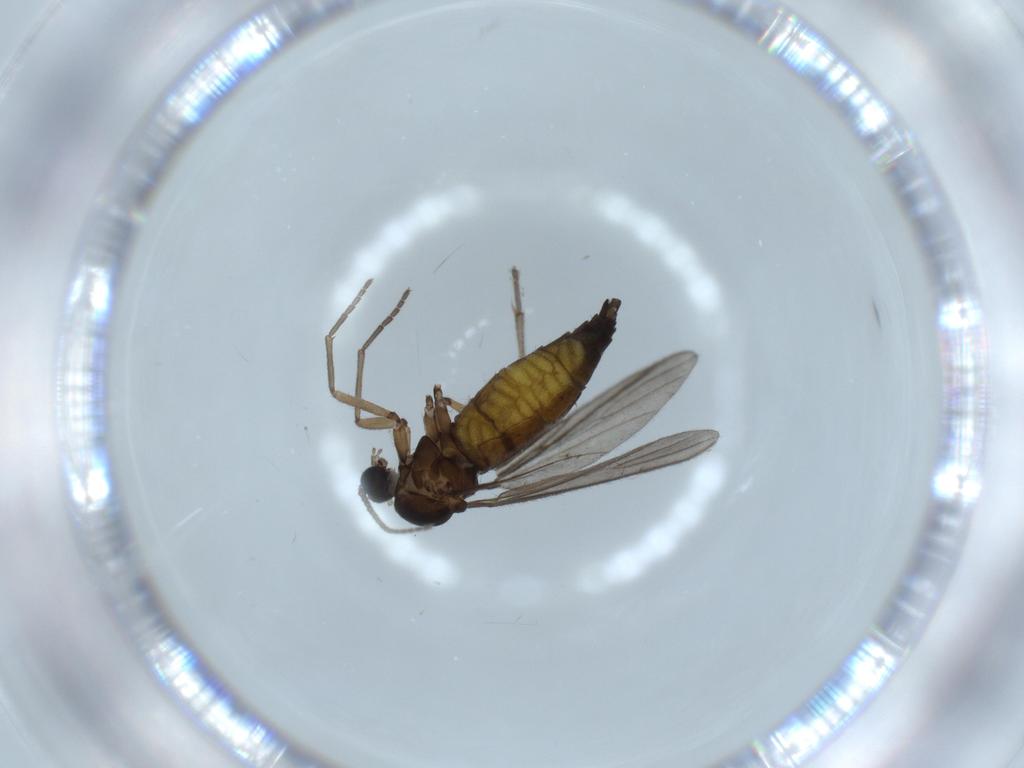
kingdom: Animalia
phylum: Arthropoda
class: Insecta
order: Diptera
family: Sciaridae
